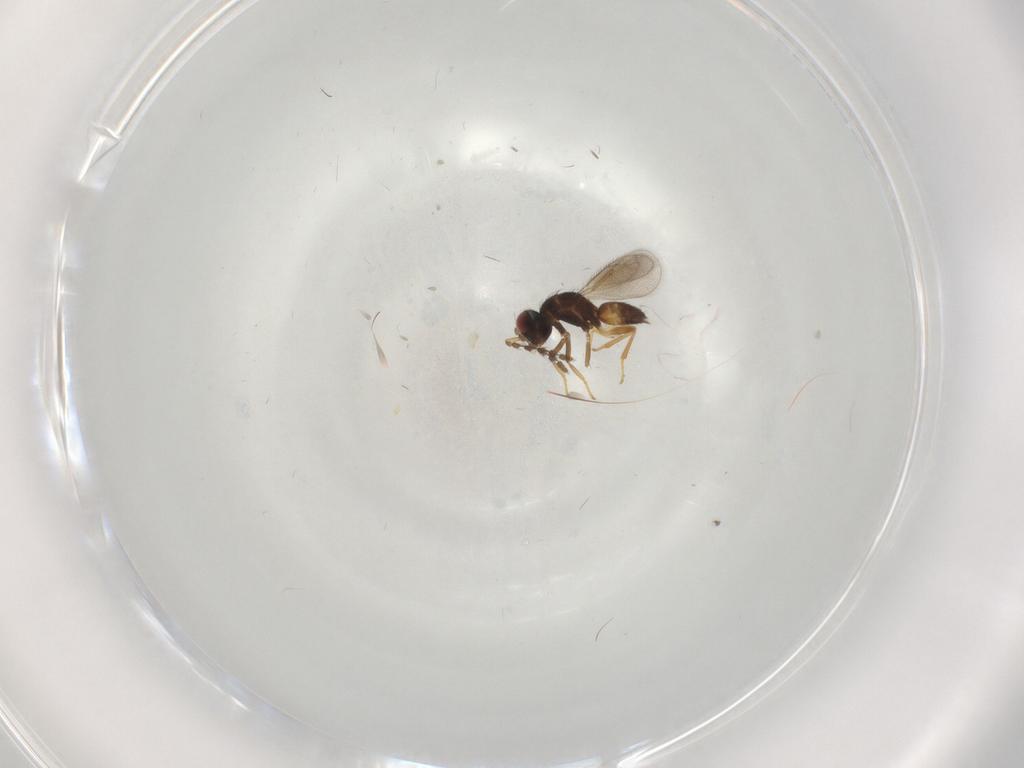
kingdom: Animalia
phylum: Arthropoda
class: Insecta
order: Hymenoptera
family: Eulophidae
